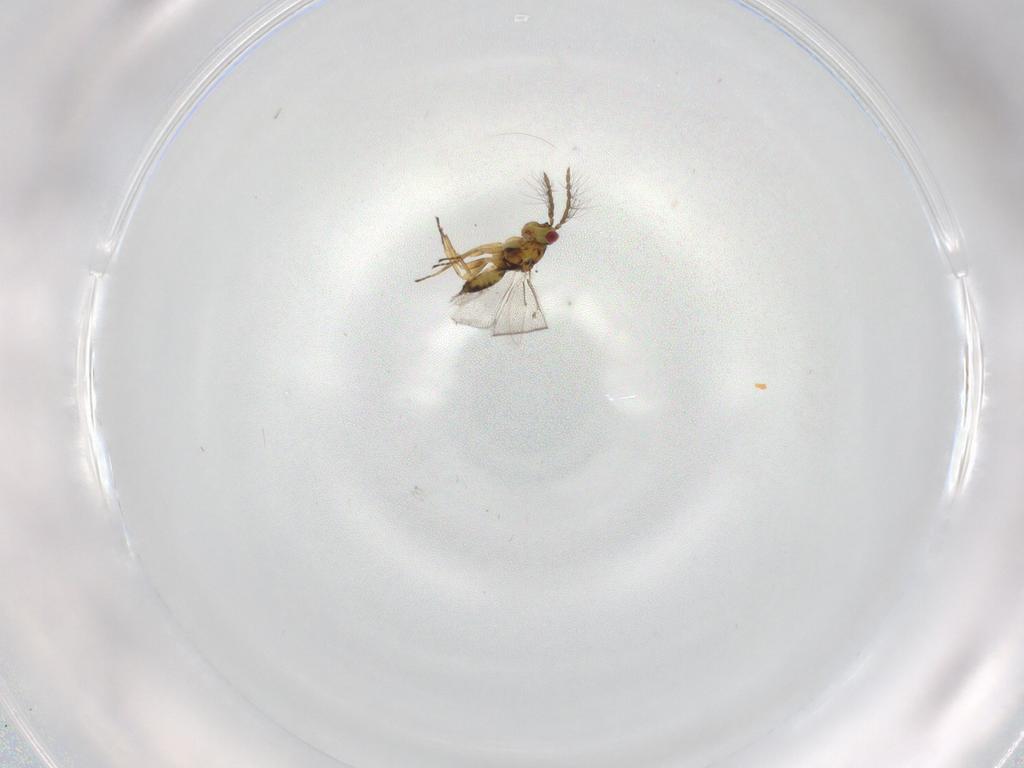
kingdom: Animalia
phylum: Arthropoda
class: Insecta
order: Hymenoptera
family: Eulophidae
